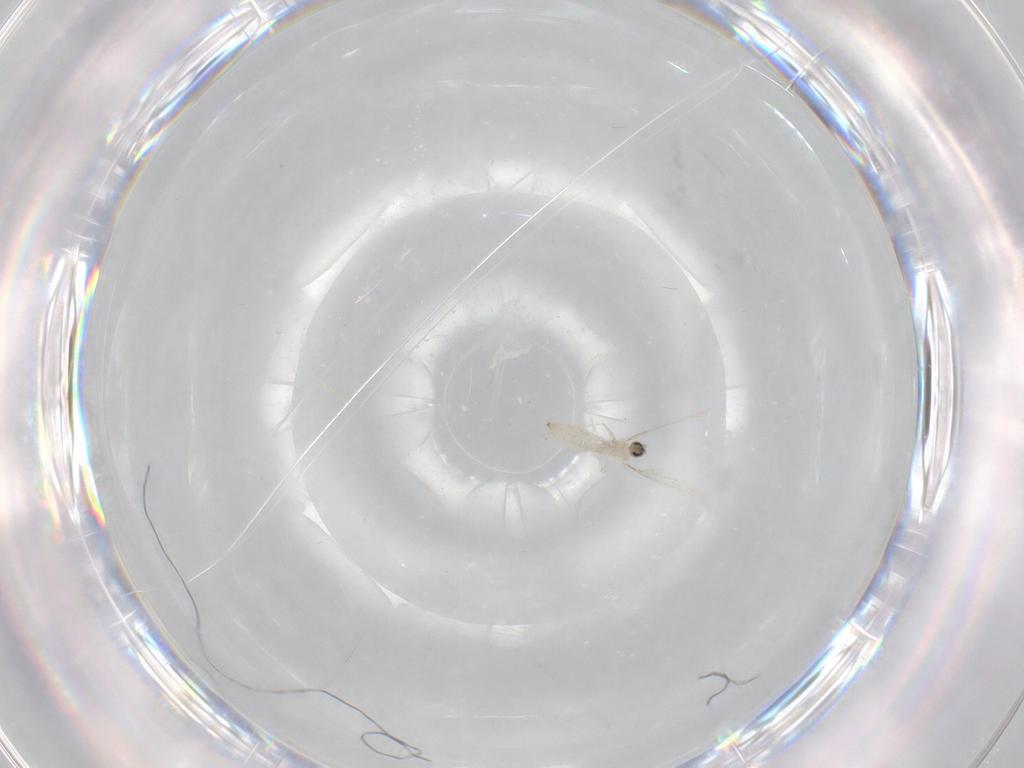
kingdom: Animalia
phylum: Arthropoda
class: Insecta
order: Diptera
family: Cecidomyiidae
